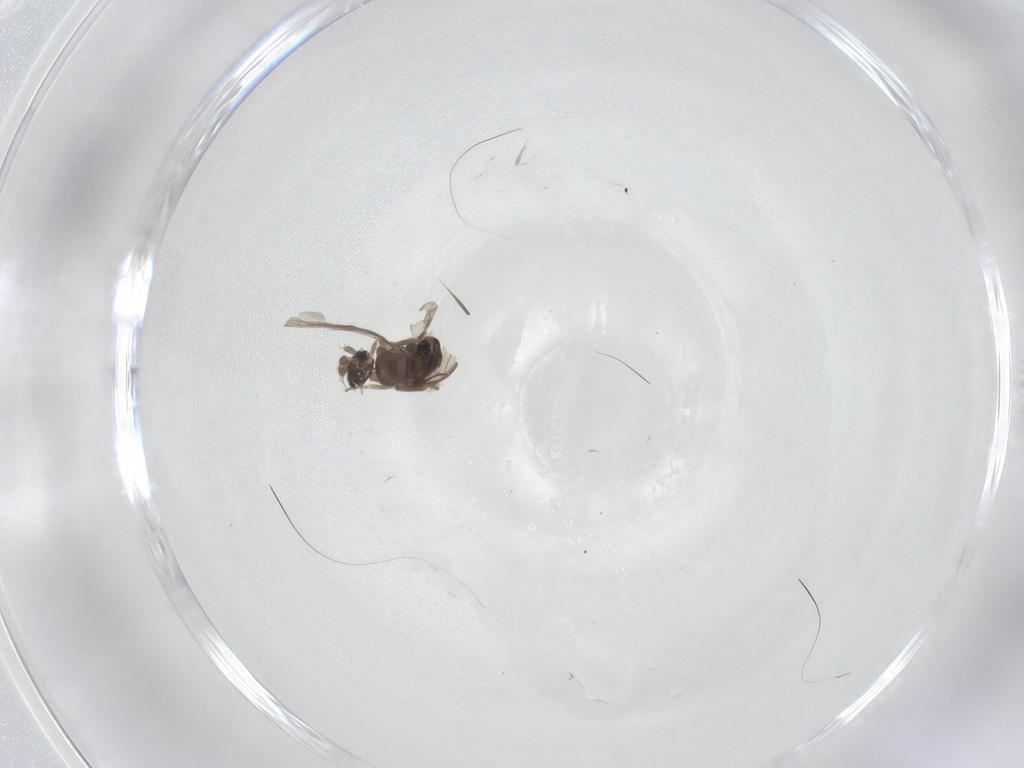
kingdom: Animalia
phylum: Arthropoda
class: Insecta
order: Diptera
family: Phoridae
